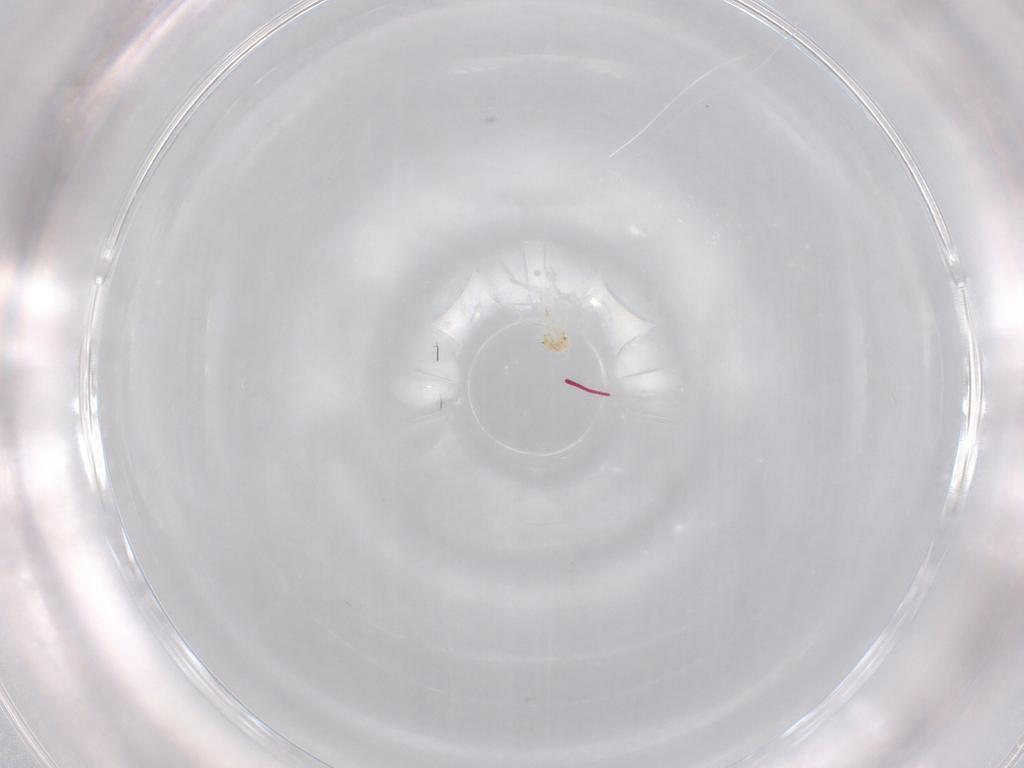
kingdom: Animalia
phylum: Arthropoda
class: Insecta
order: Hymenoptera
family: Mymaridae
